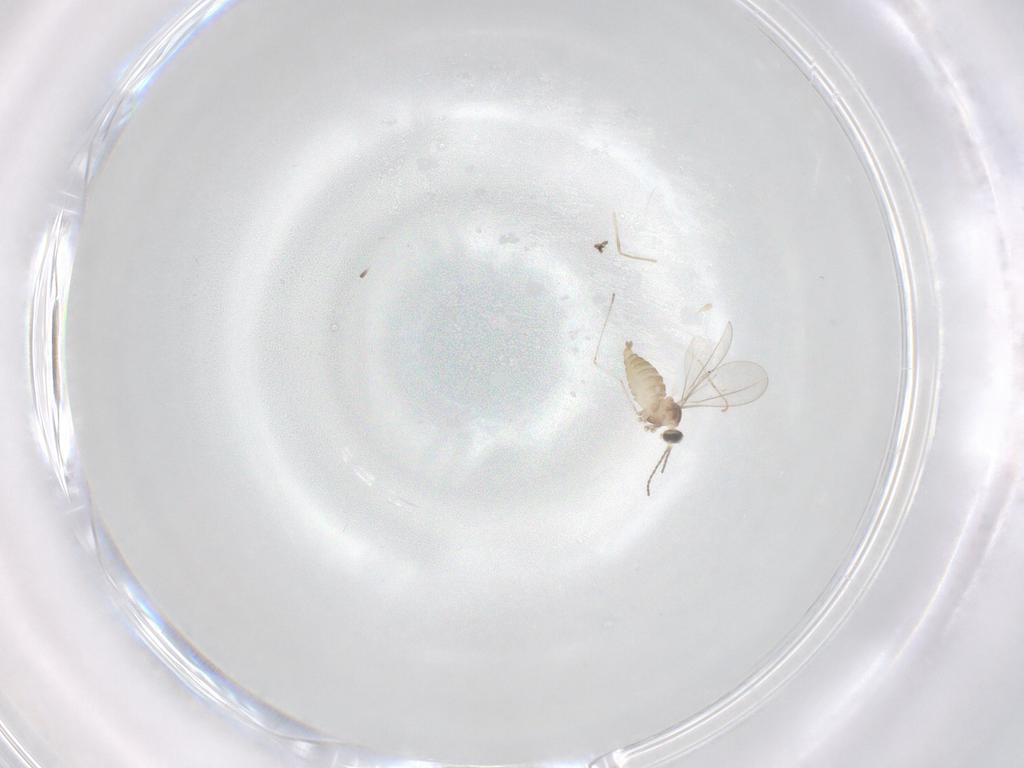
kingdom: Animalia
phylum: Arthropoda
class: Insecta
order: Diptera
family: Cecidomyiidae
